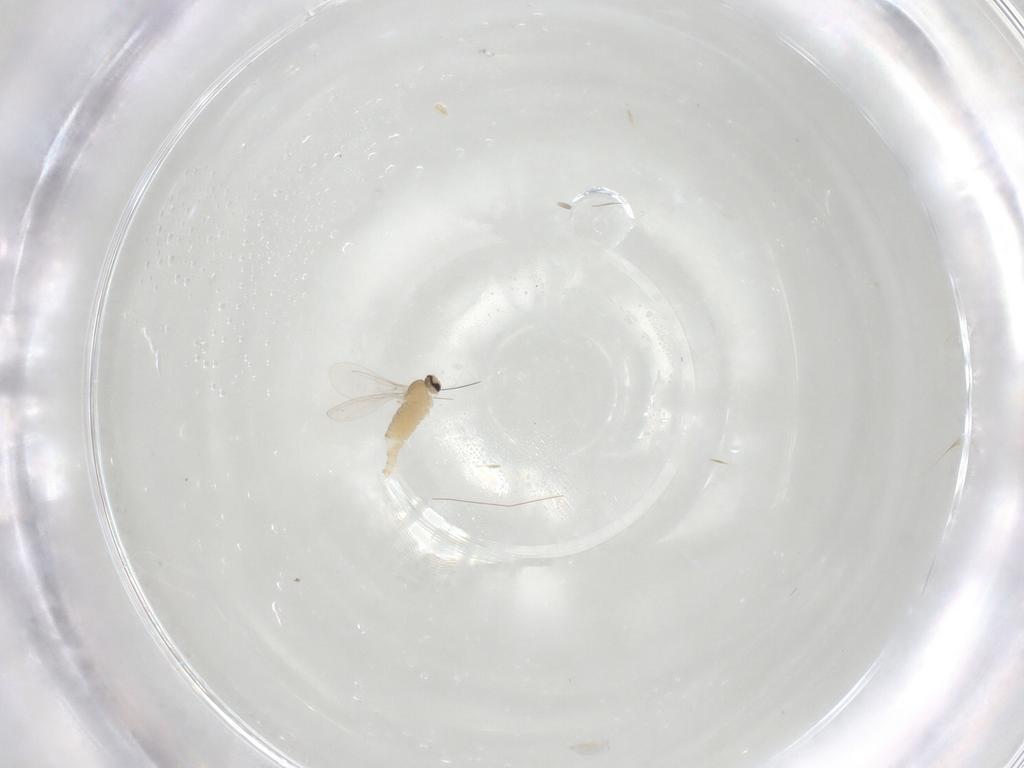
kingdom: Animalia
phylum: Arthropoda
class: Insecta
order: Diptera
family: Cecidomyiidae
